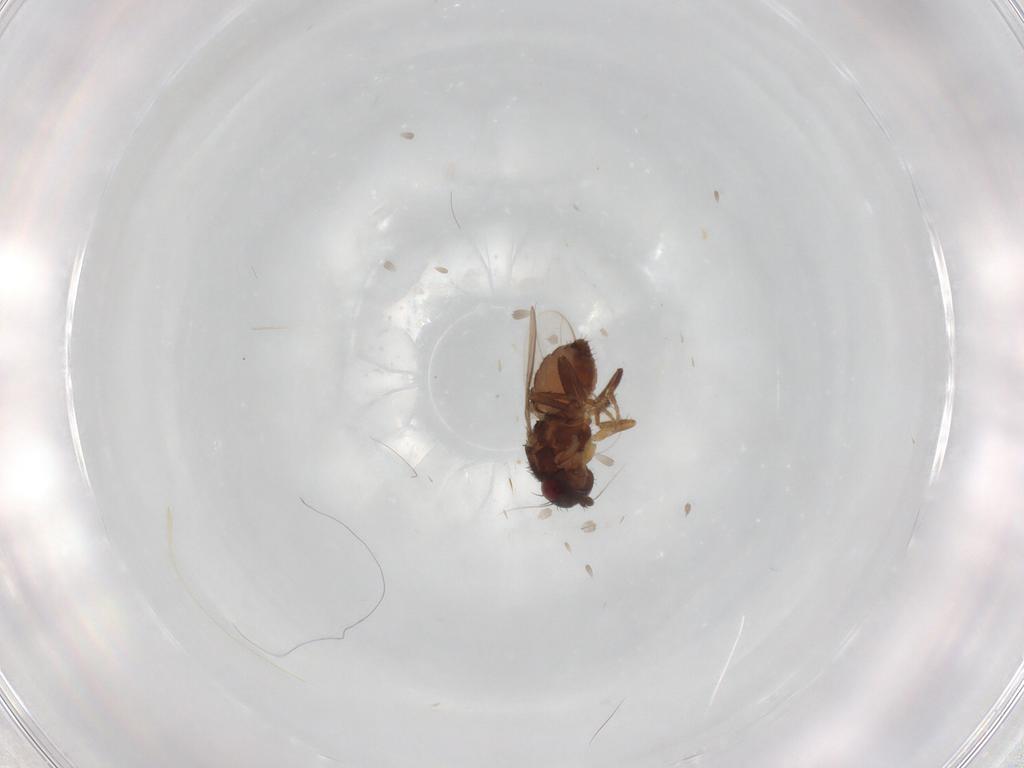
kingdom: Animalia
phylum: Arthropoda
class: Insecta
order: Diptera
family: Sphaeroceridae
